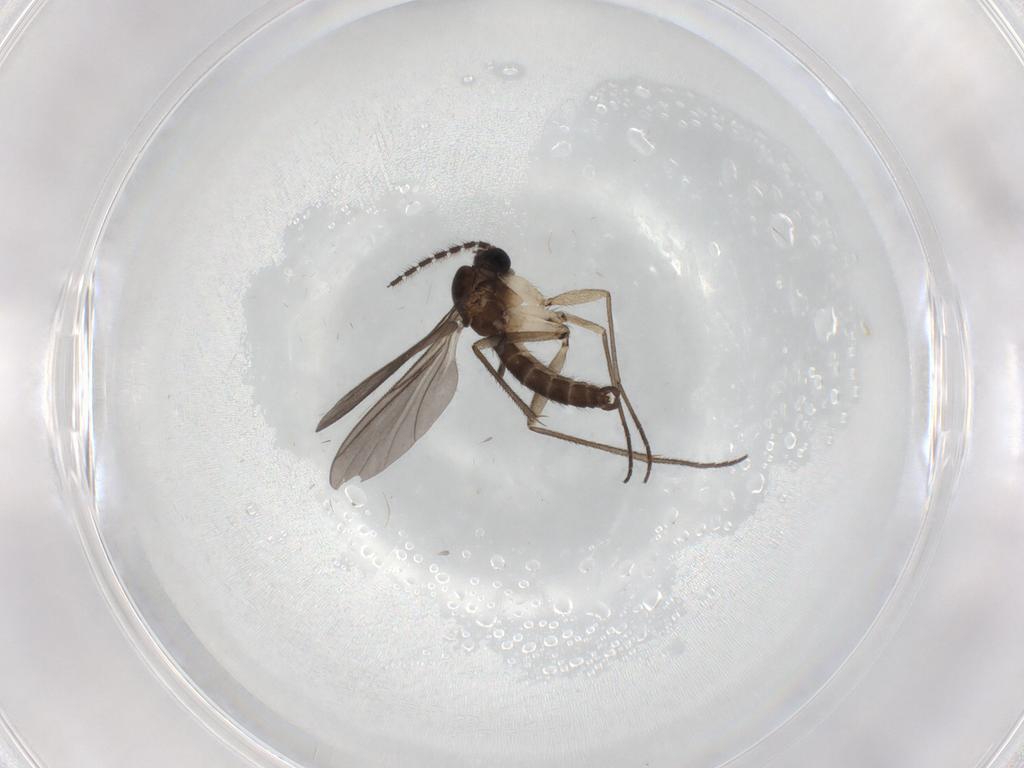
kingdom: Animalia
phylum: Arthropoda
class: Insecta
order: Diptera
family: Sciaridae
